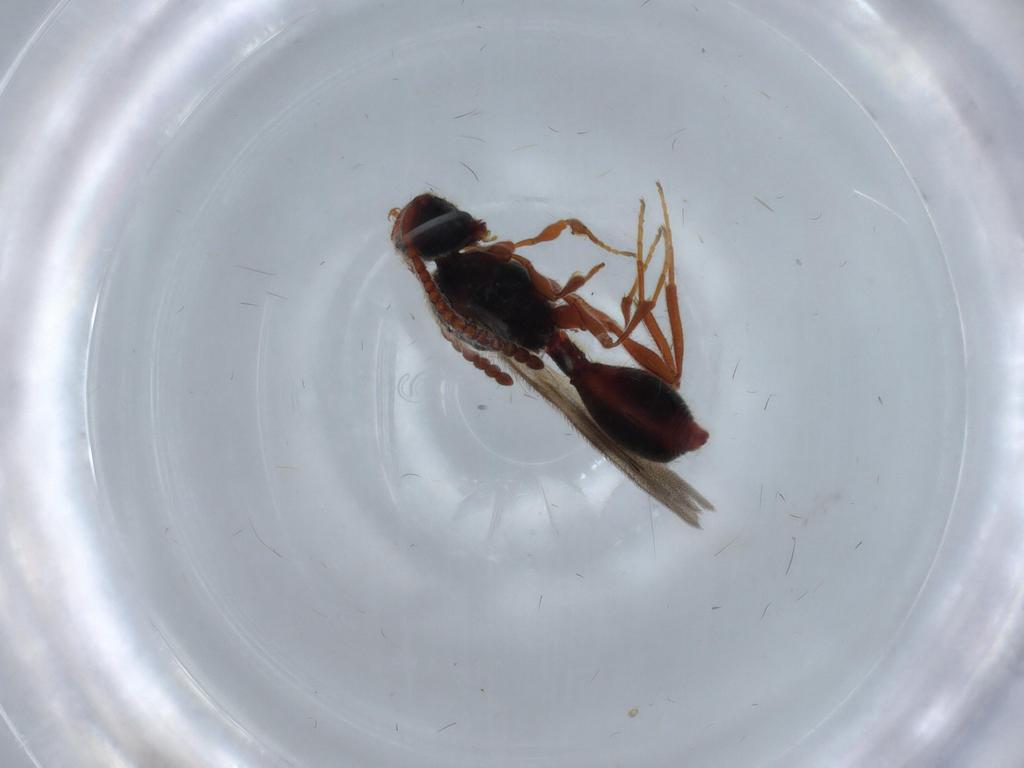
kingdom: Animalia
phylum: Arthropoda
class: Insecta
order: Hymenoptera
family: Diapriidae
